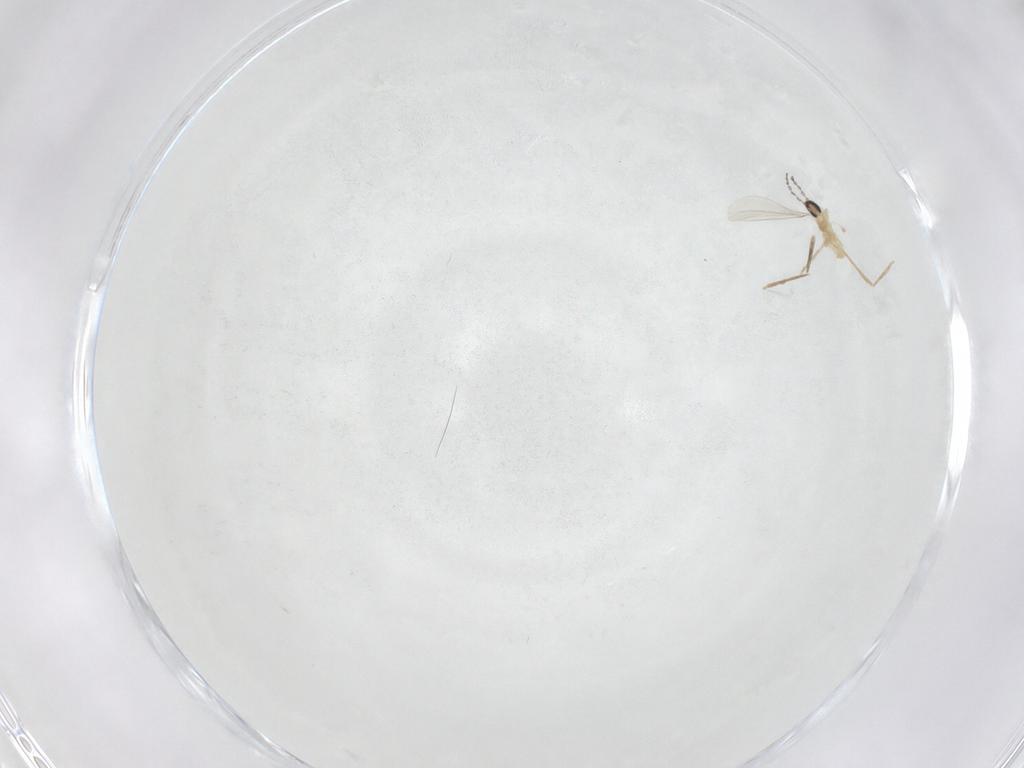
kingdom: Animalia
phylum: Arthropoda
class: Insecta
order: Diptera
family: Cecidomyiidae
